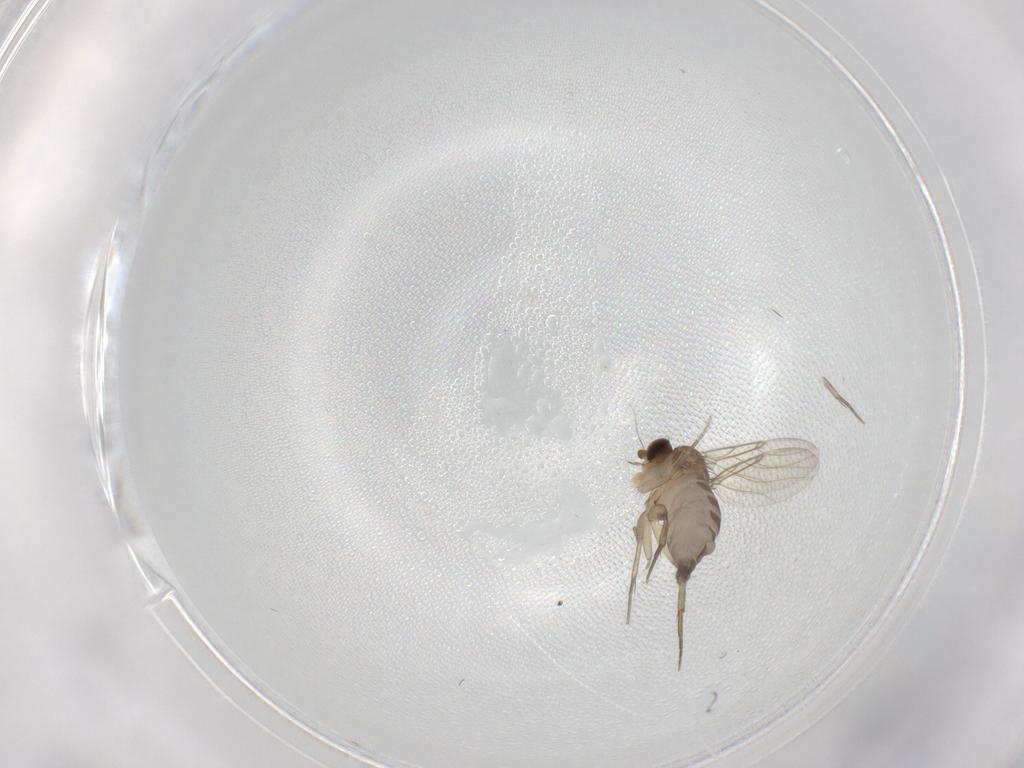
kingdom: Animalia
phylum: Arthropoda
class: Insecta
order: Diptera
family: Phoridae
